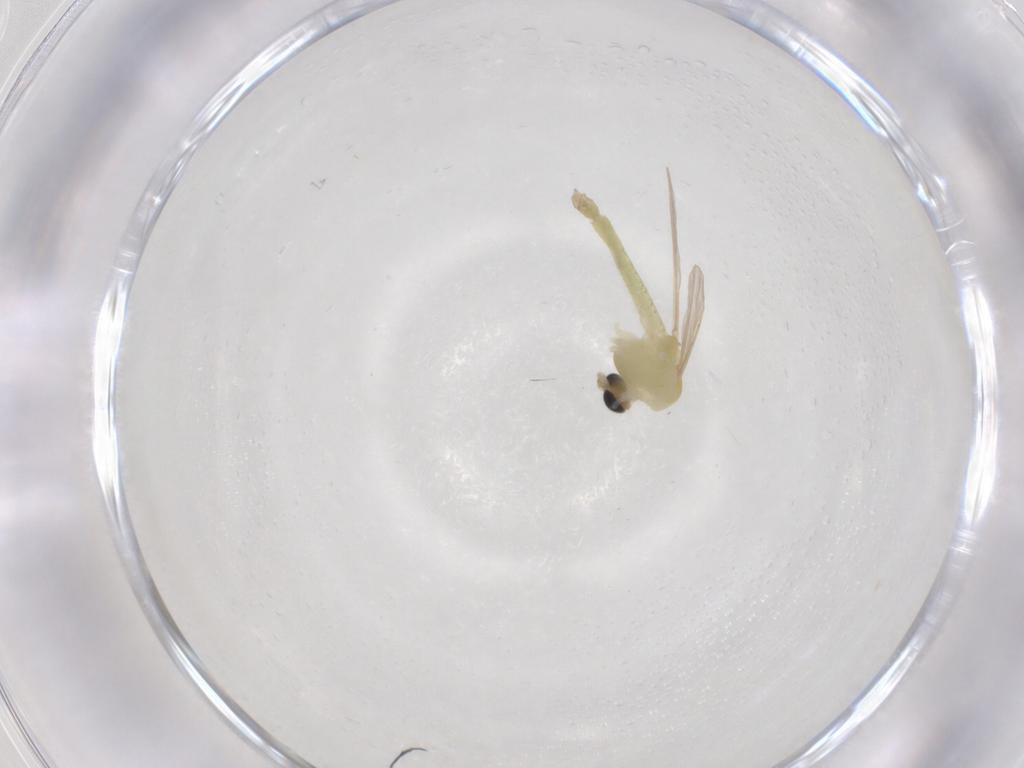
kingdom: Animalia
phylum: Arthropoda
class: Insecta
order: Diptera
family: Chironomidae
